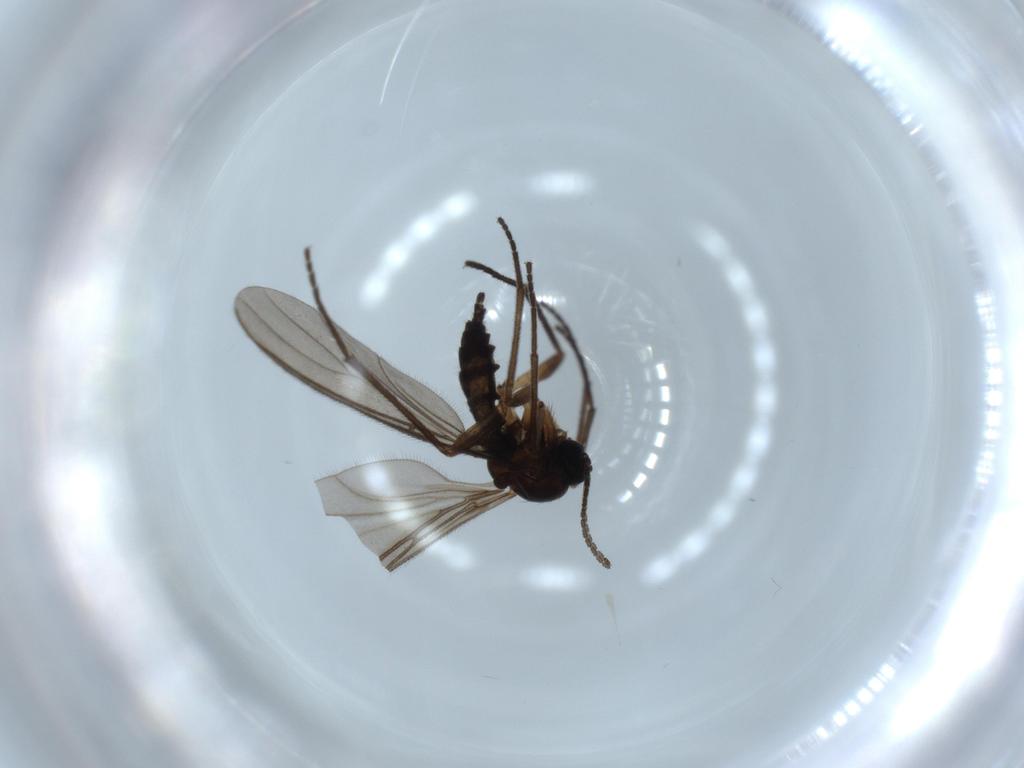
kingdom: Animalia
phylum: Arthropoda
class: Insecta
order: Diptera
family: Sciaridae
